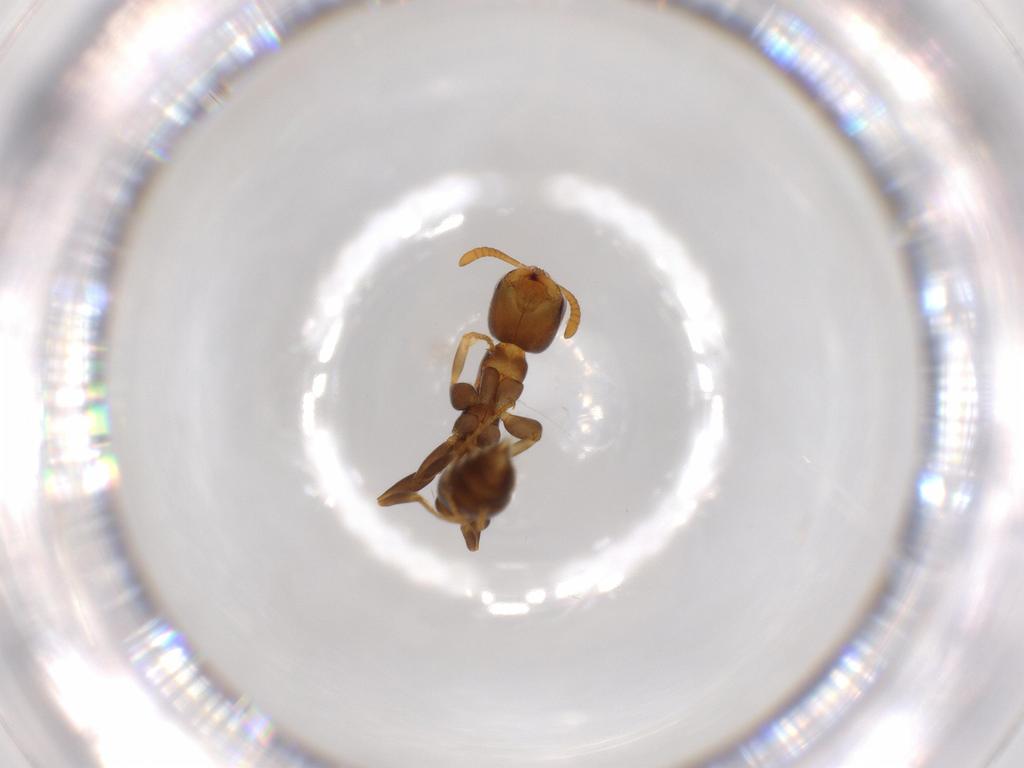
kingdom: Animalia
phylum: Arthropoda
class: Insecta
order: Hymenoptera
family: Formicidae
